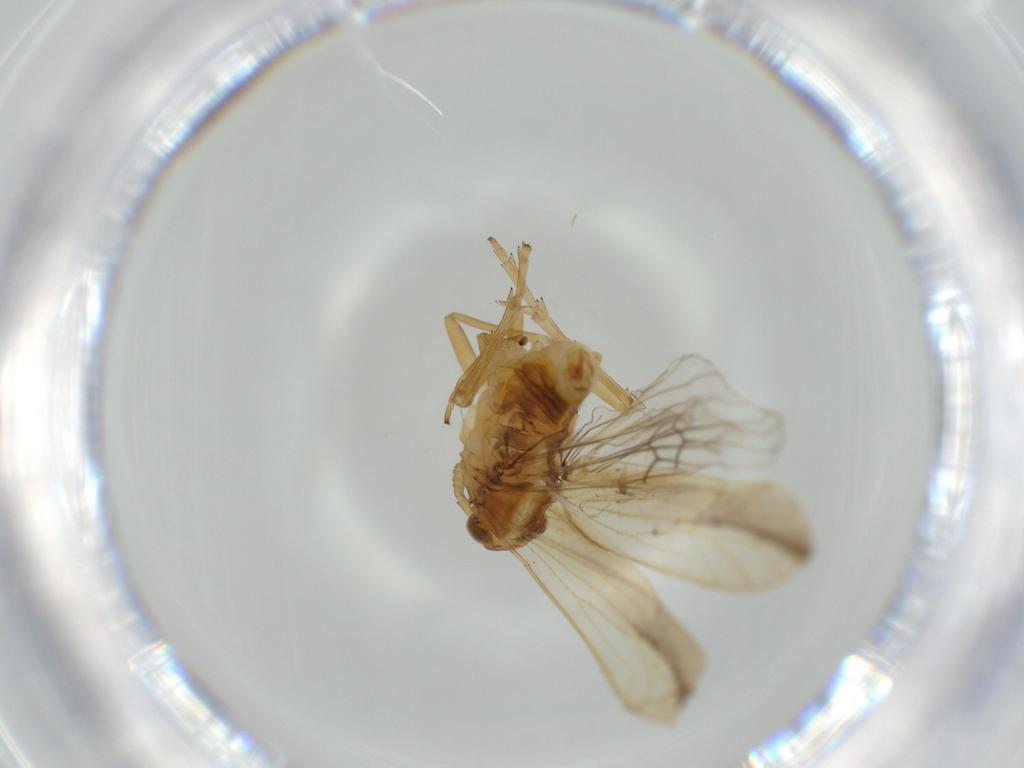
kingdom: Animalia
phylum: Arthropoda
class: Insecta
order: Hemiptera
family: Delphacidae
